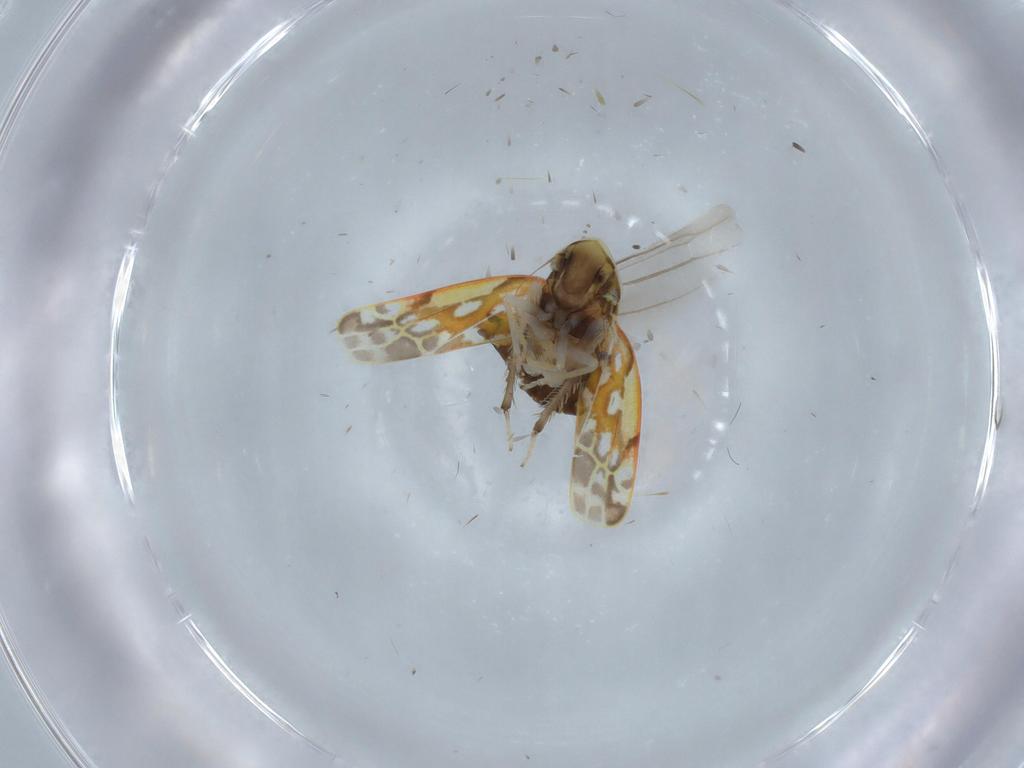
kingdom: Animalia
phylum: Arthropoda
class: Insecta
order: Hemiptera
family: Cicadellidae
